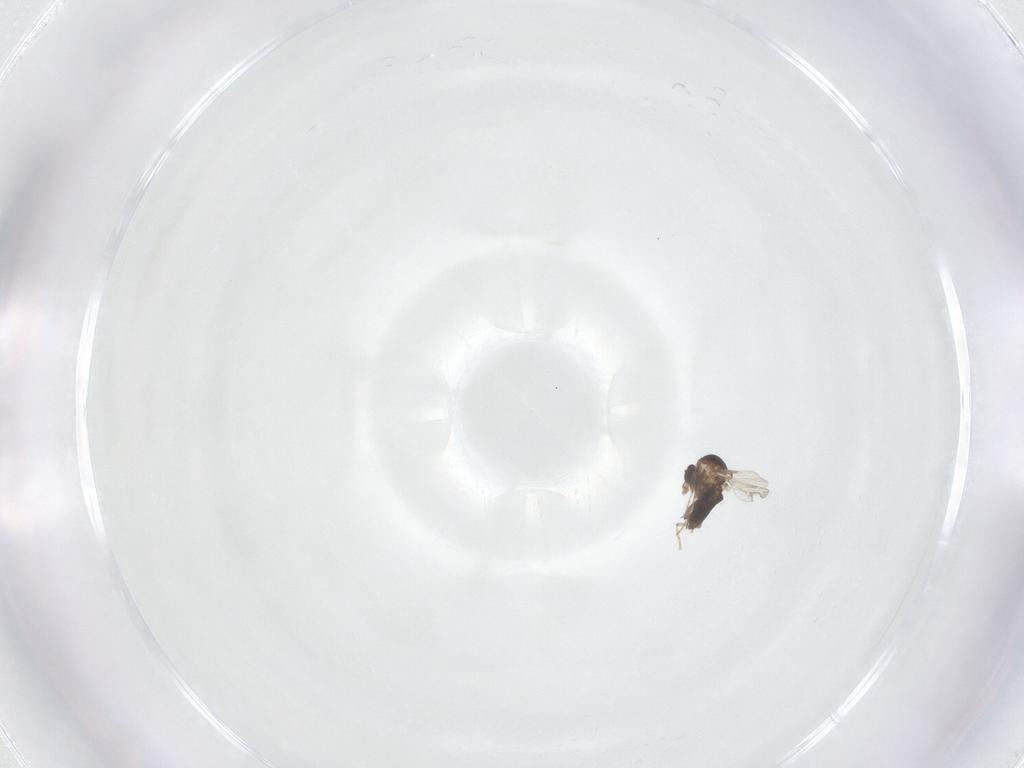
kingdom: Animalia
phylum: Arthropoda
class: Insecta
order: Diptera
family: Ceratopogonidae
